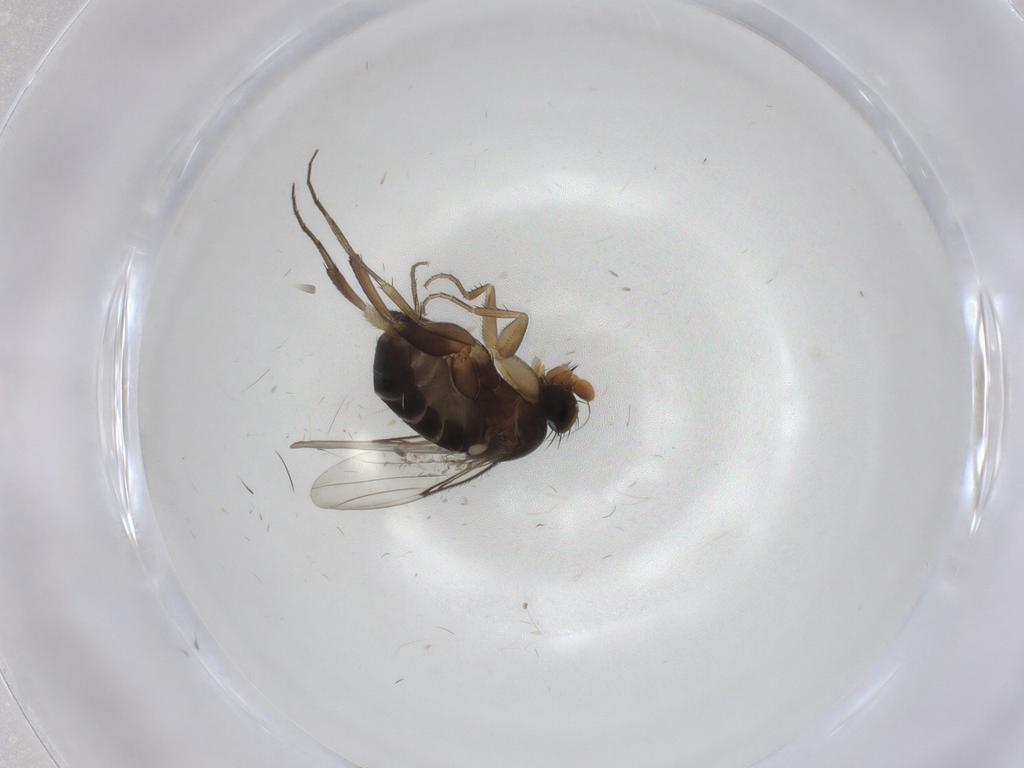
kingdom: Animalia
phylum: Arthropoda
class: Insecta
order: Diptera
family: Phoridae
